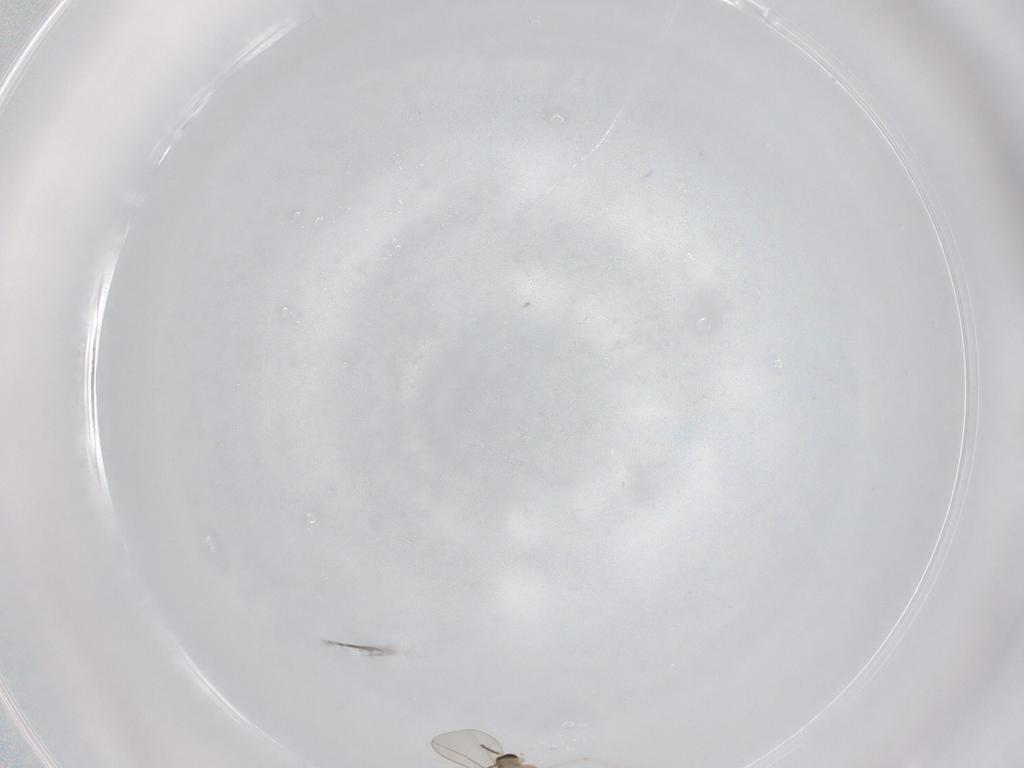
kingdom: Animalia
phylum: Arthropoda
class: Insecta
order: Diptera
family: Cecidomyiidae
